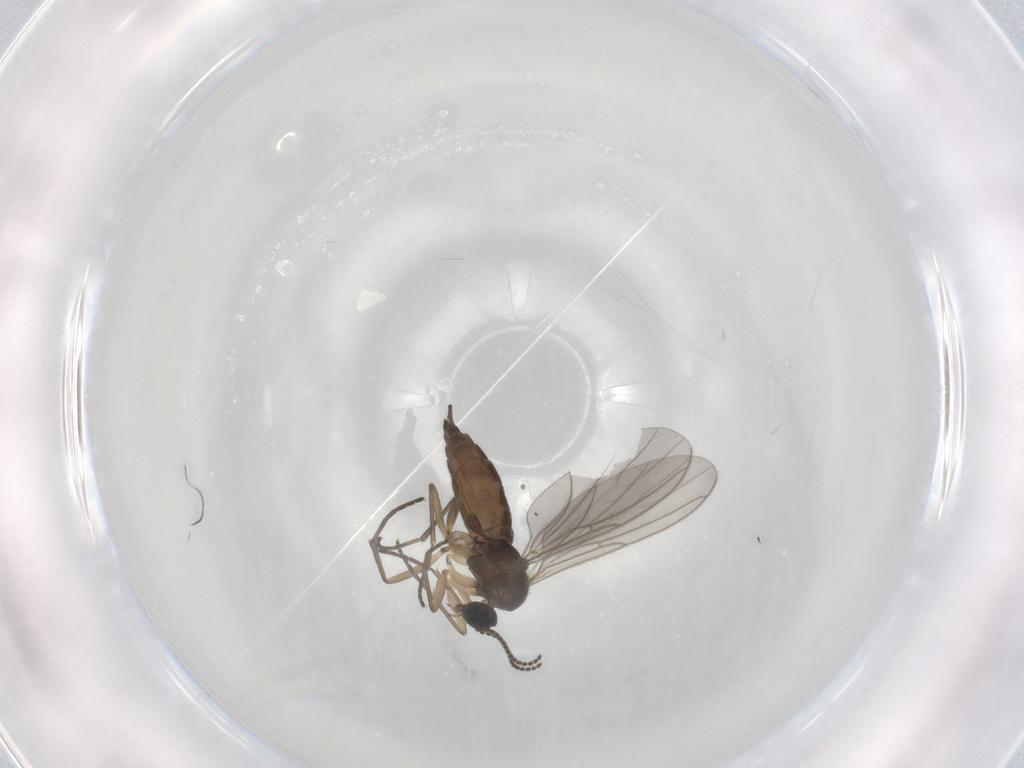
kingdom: Animalia
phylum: Arthropoda
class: Insecta
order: Diptera
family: Sciaridae
